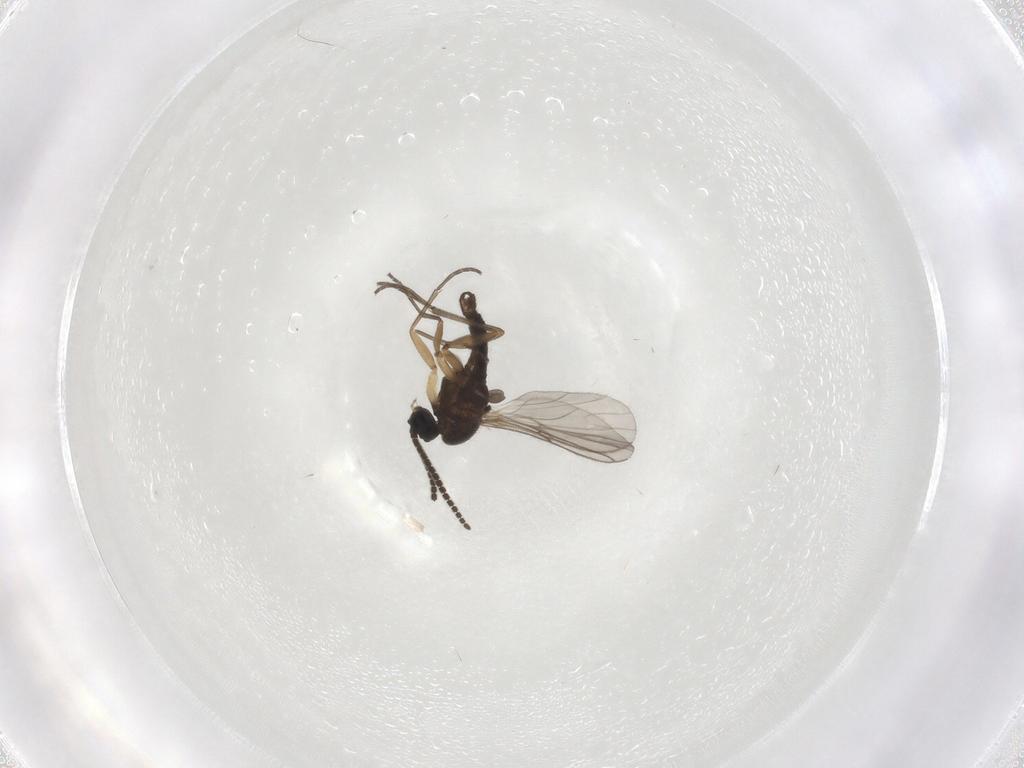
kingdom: Animalia
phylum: Arthropoda
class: Insecta
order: Diptera
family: Sciaridae
